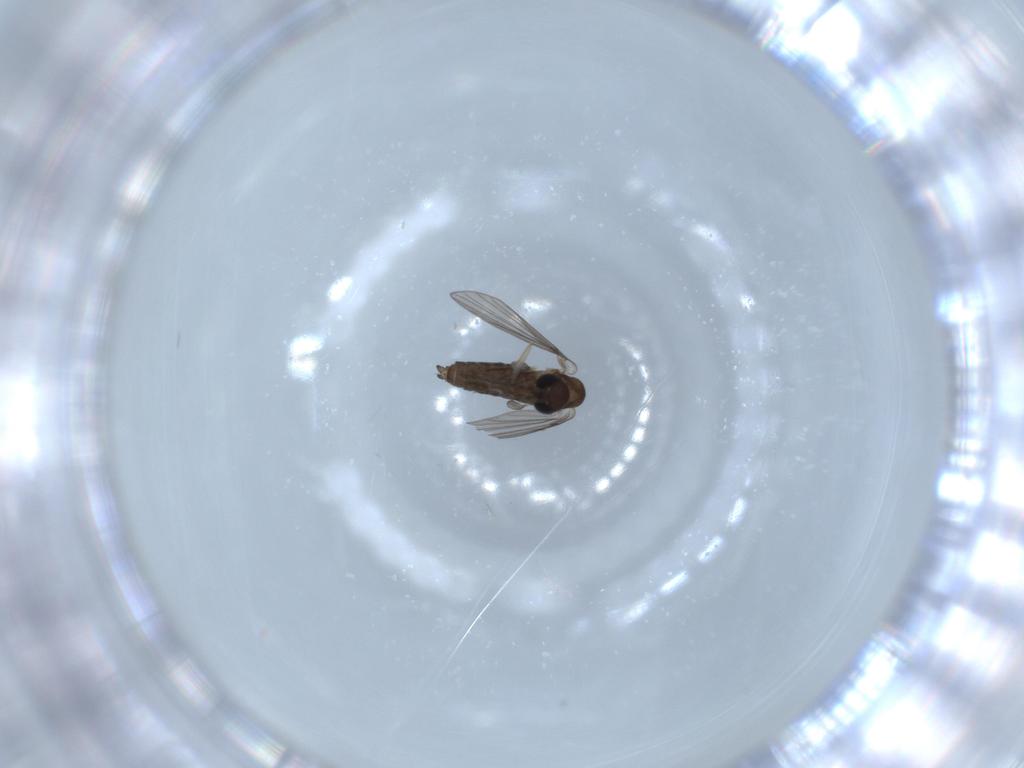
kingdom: Animalia
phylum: Arthropoda
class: Insecta
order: Diptera
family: Cecidomyiidae
